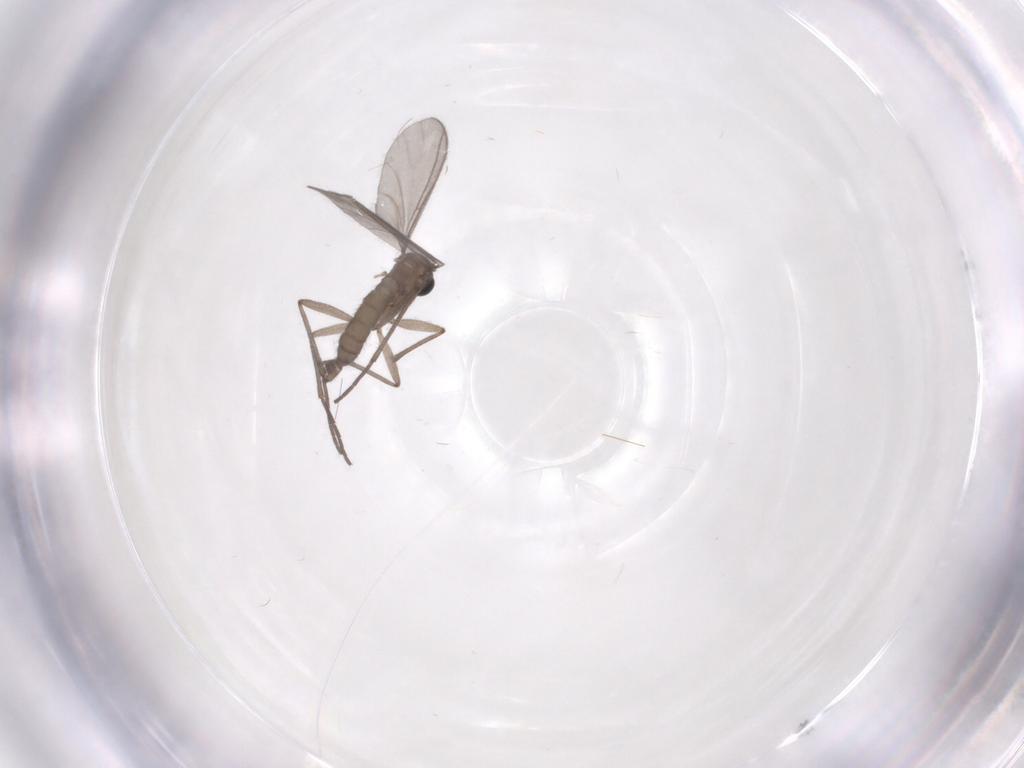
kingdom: Animalia
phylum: Arthropoda
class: Insecta
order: Diptera
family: Sciaridae
